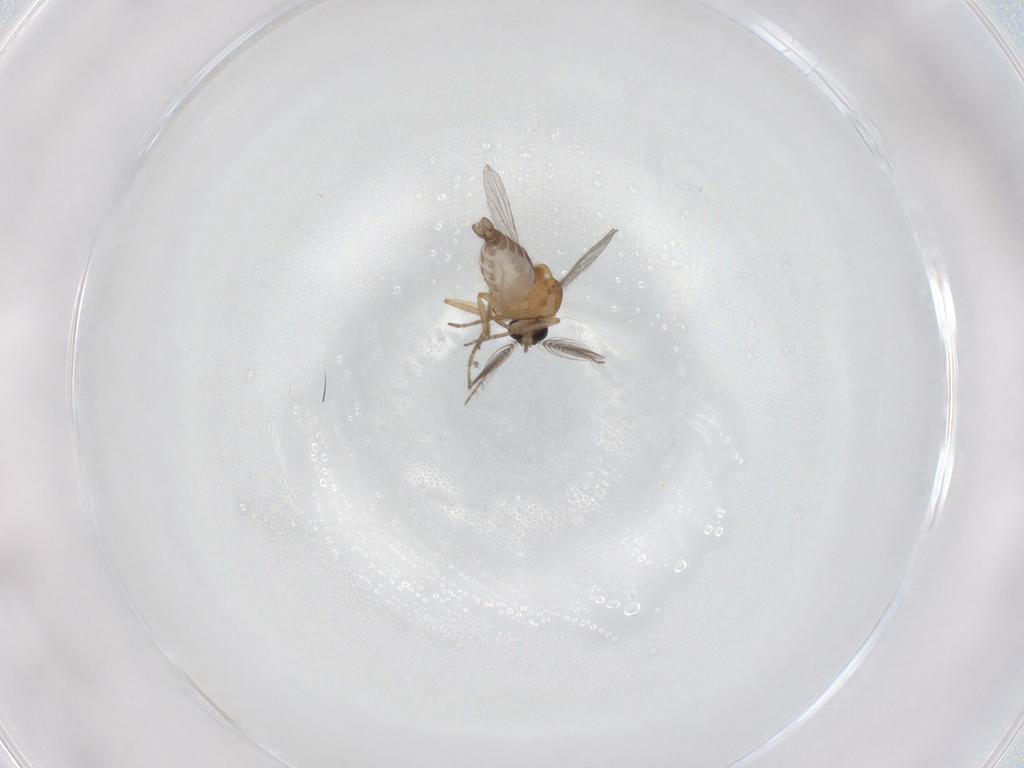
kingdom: Animalia
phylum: Arthropoda
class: Insecta
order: Diptera
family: Ceratopogonidae
